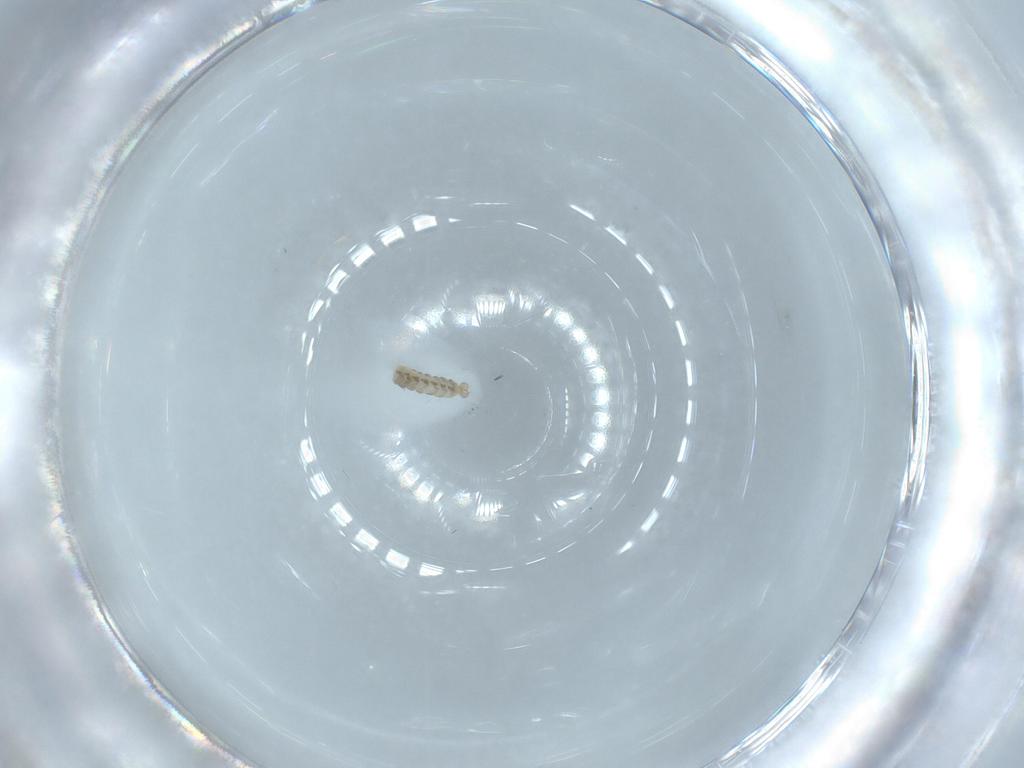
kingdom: Animalia
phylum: Arthropoda
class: Insecta
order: Diptera
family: Cecidomyiidae
